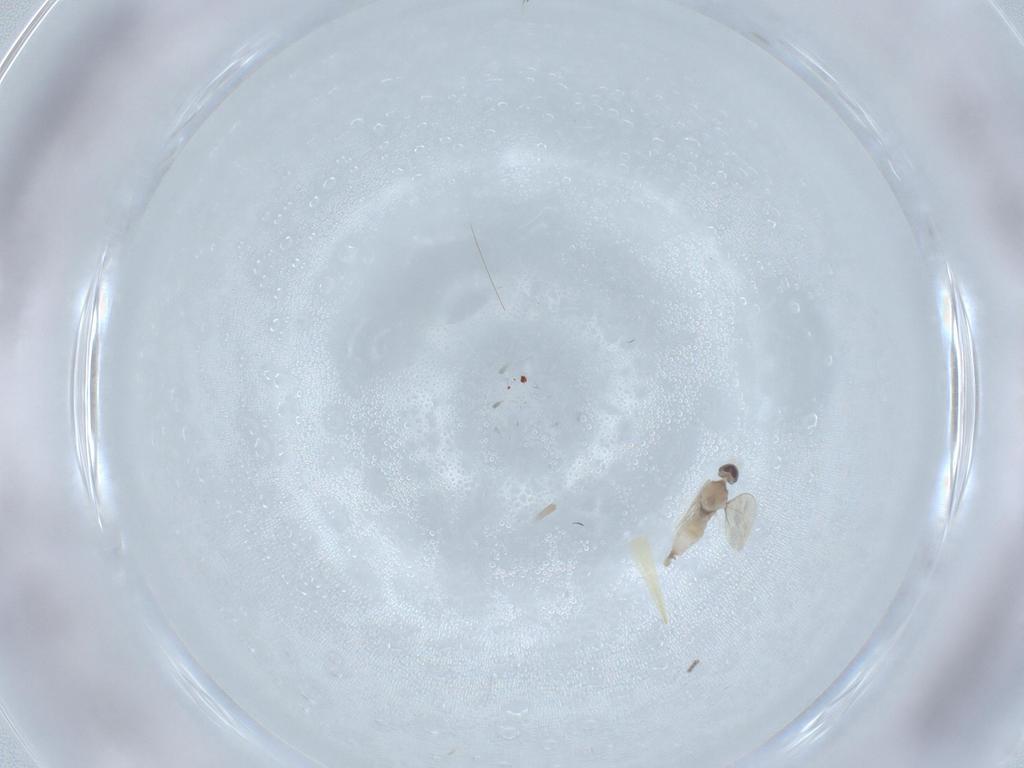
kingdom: Animalia
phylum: Arthropoda
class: Insecta
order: Diptera
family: Cecidomyiidae
